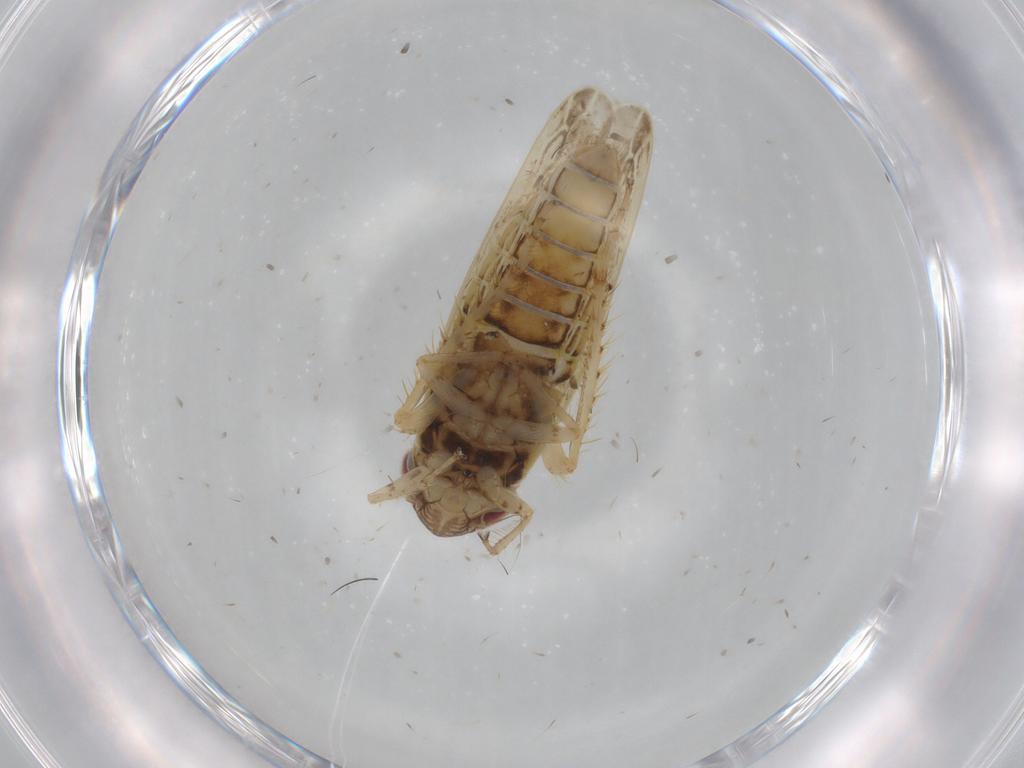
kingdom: Animalia
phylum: Arthropoda
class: Insecta
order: Hemiptera
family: Cicadellidae
